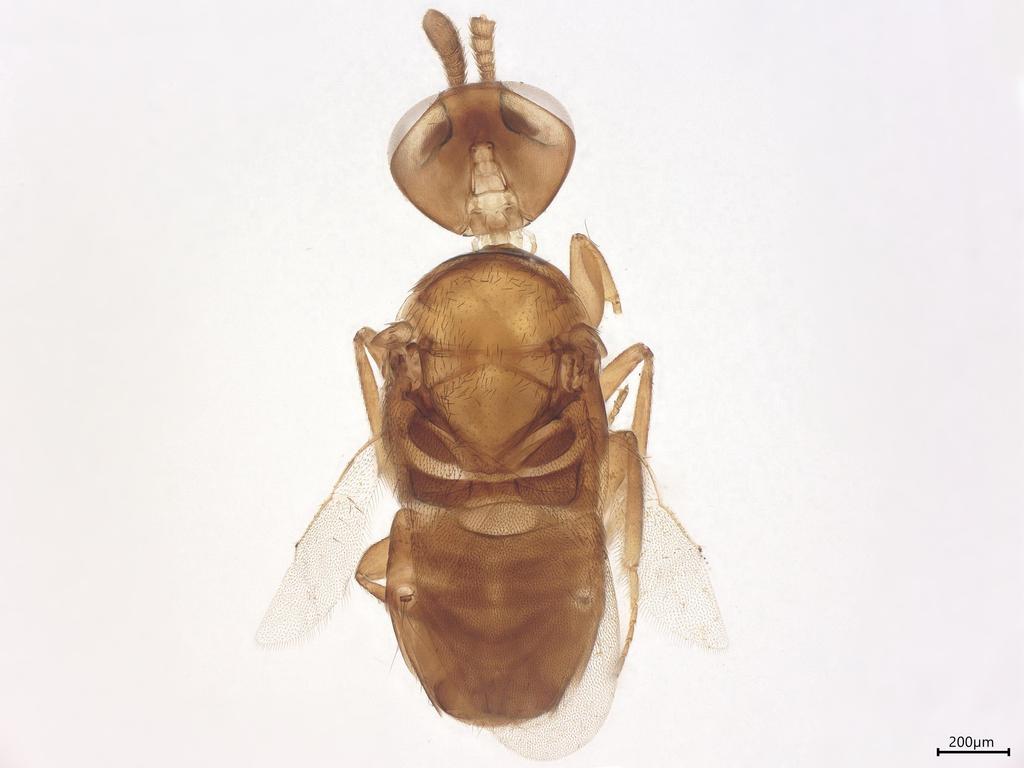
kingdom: Animalia
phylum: Arthropoda
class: Insecta
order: Hymenoptera
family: Encyrtidae
